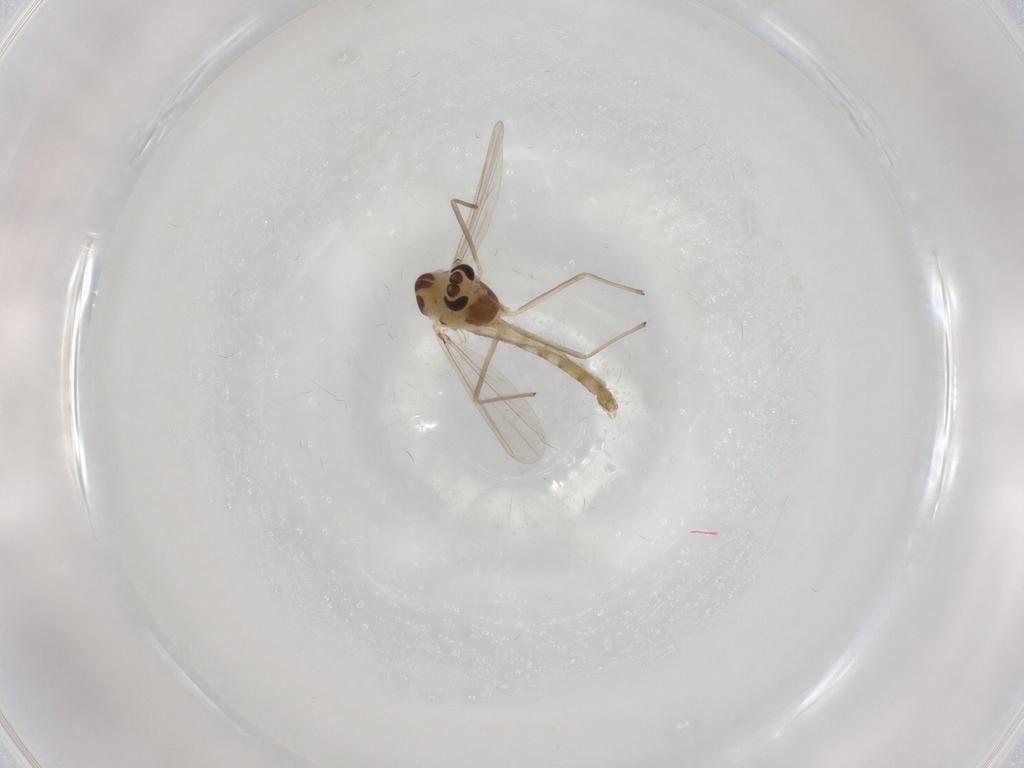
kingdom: Animalia
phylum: Arthropoda
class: Insecta
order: Diptera
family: Chironomidae
